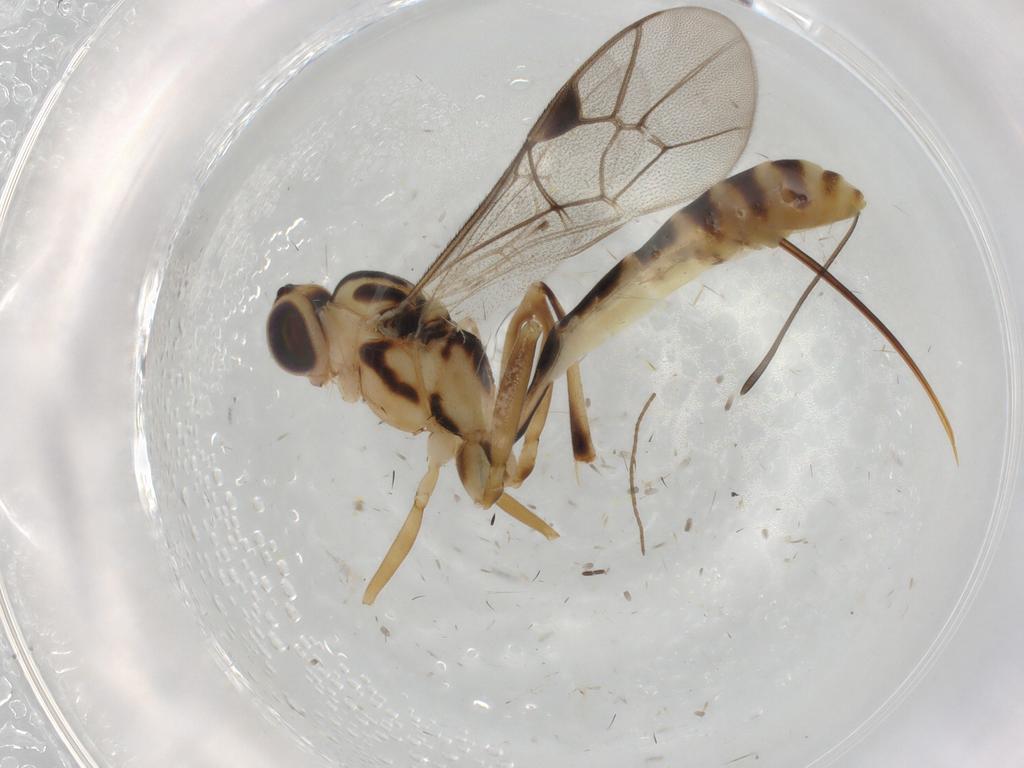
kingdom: Animalia
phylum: Arthropoda
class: Insecta
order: Hymenoptera
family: Ichneumonidae
